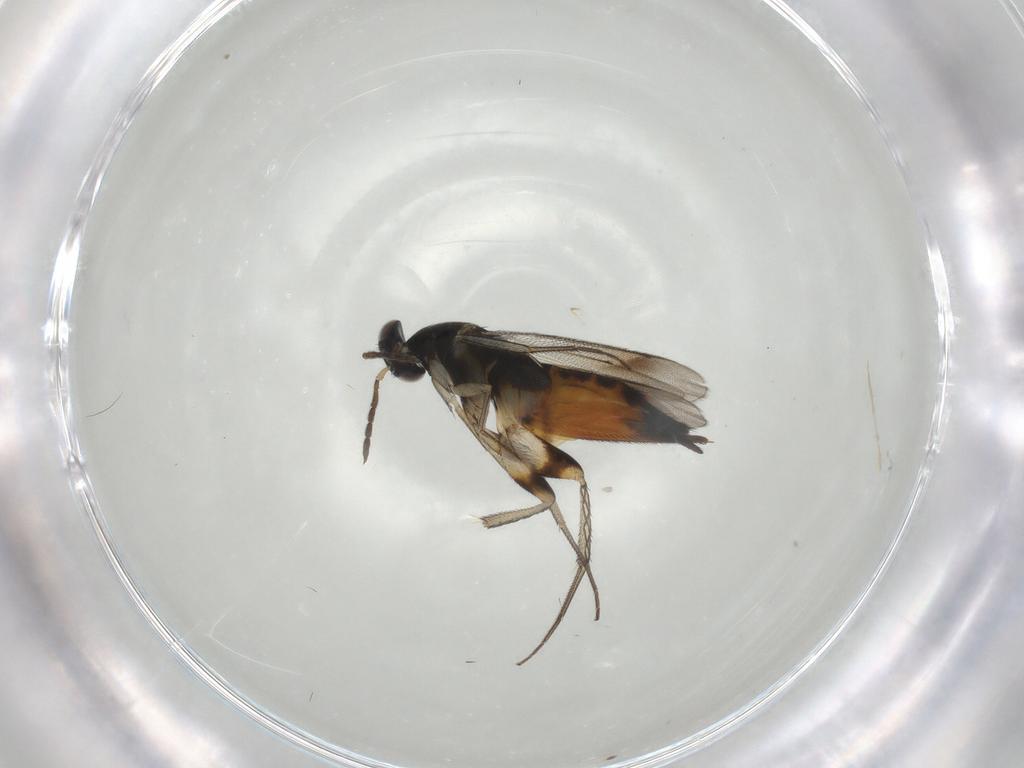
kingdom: Animalia
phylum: Arthropoda
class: Insecta
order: Hymenoptera
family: Eulophidae
